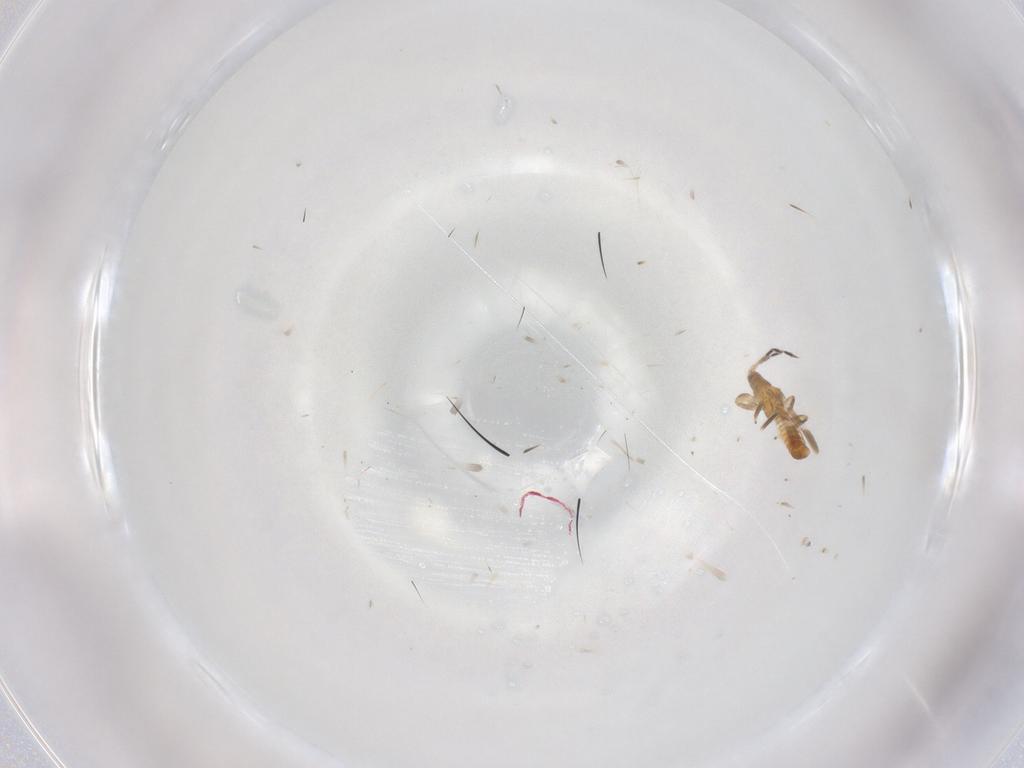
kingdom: Animalia
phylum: Arthropoda
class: Insecta
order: Thysanoptera
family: Aeolothripidae
